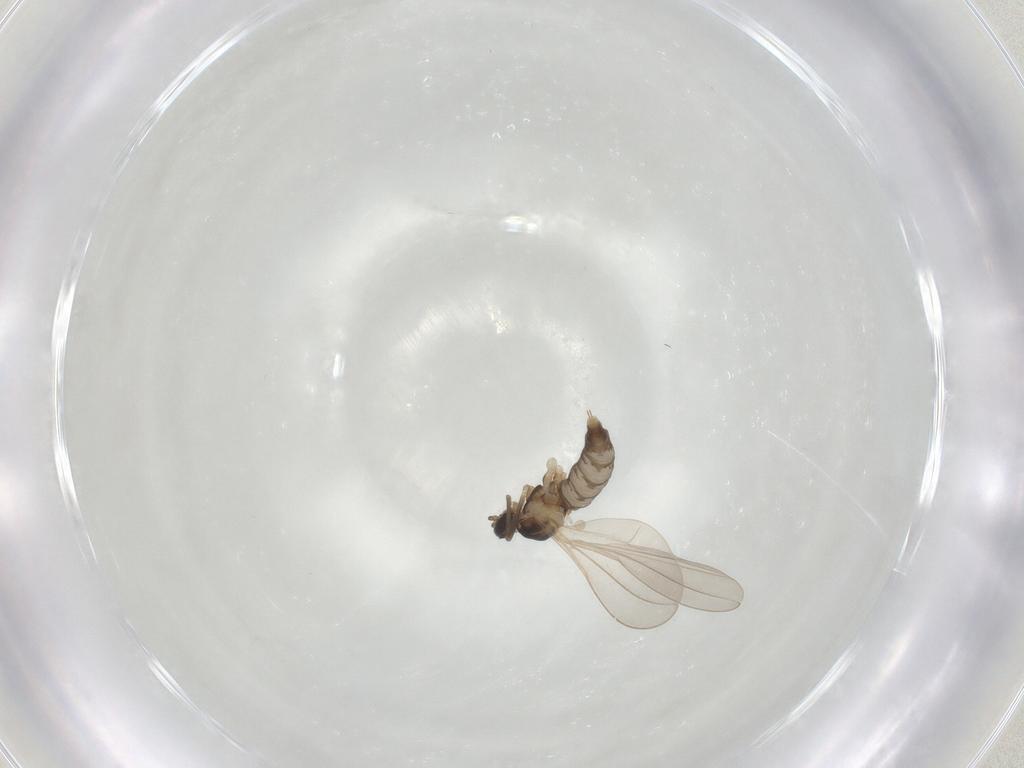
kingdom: Animalia
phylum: Arthropoda
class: Insecta
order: Diptera
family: Cecidomyiidae
